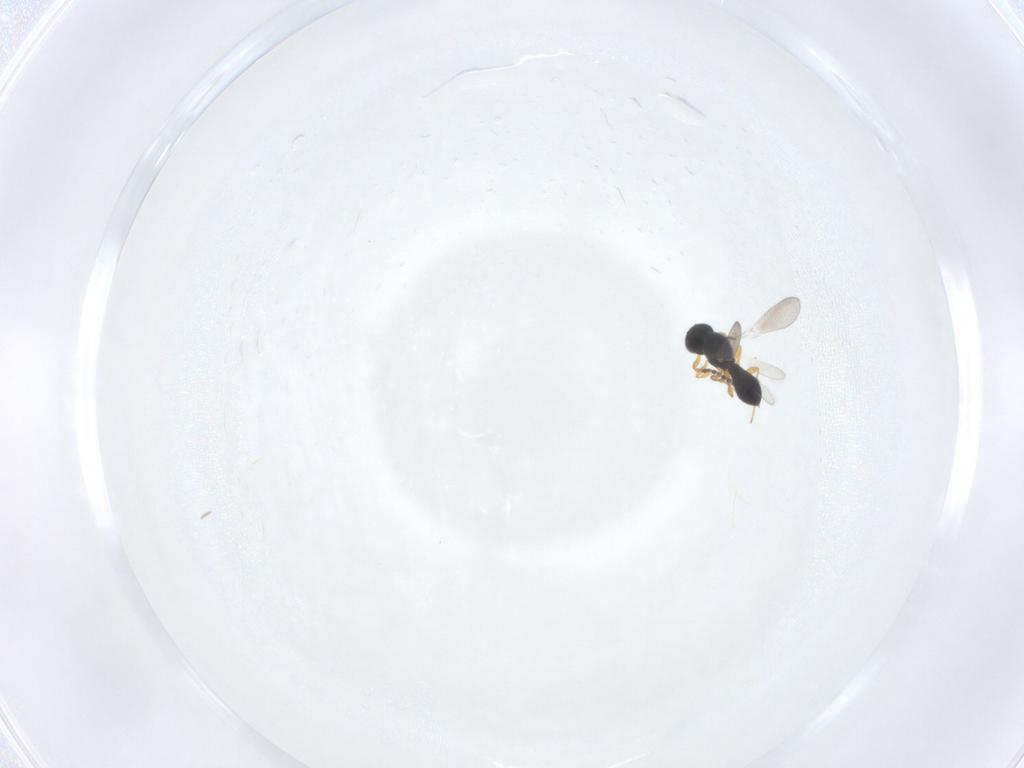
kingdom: Animalia
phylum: Arthropoda
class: Insecta
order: Hymenoptera
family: Platygastridae
